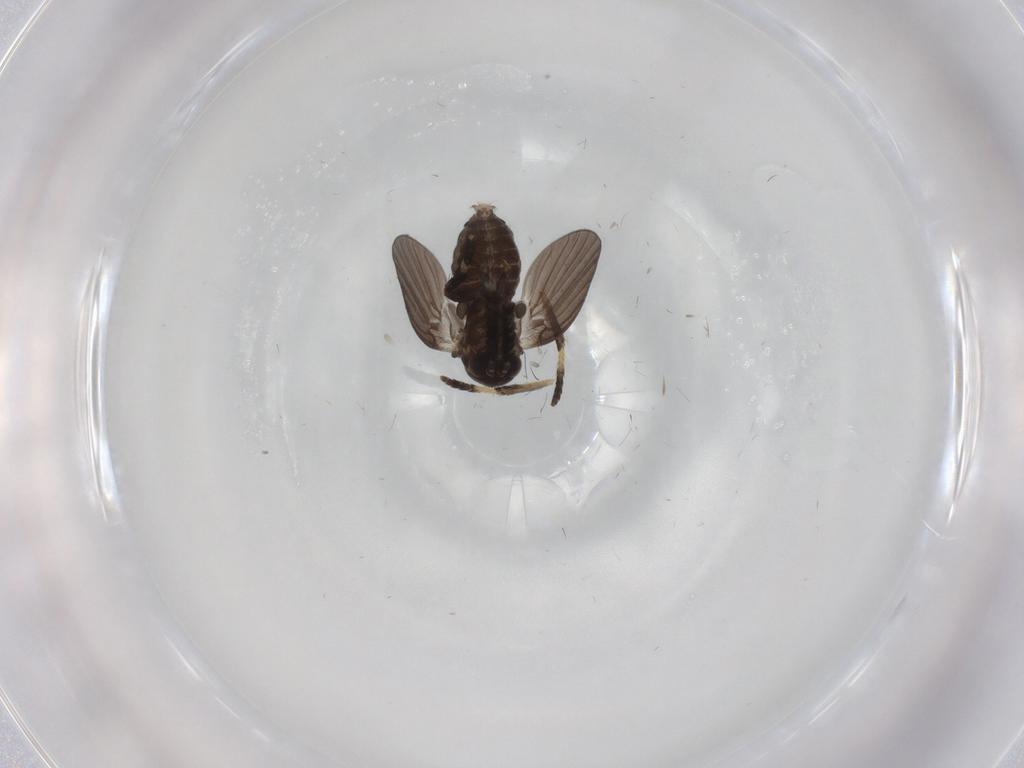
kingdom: Animalia
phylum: Arthropoda
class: Insecta
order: Diptera
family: Psychodidae
